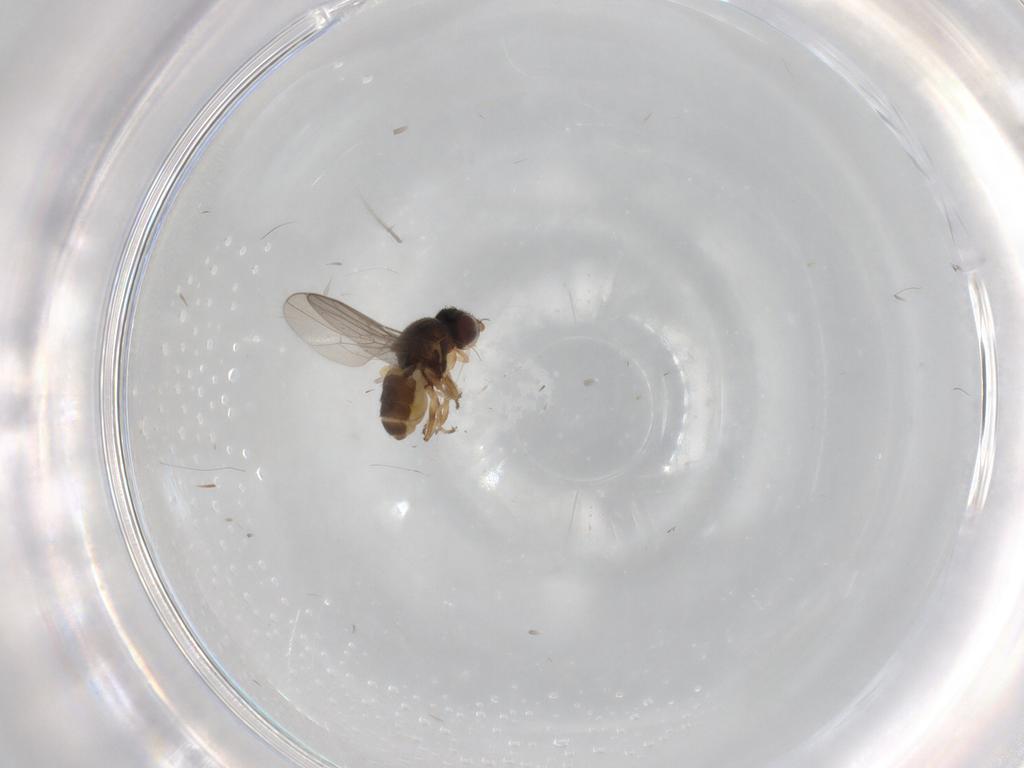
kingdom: Animalia
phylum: Arthropoda
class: Insecta
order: Diptera
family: Chloropidae
